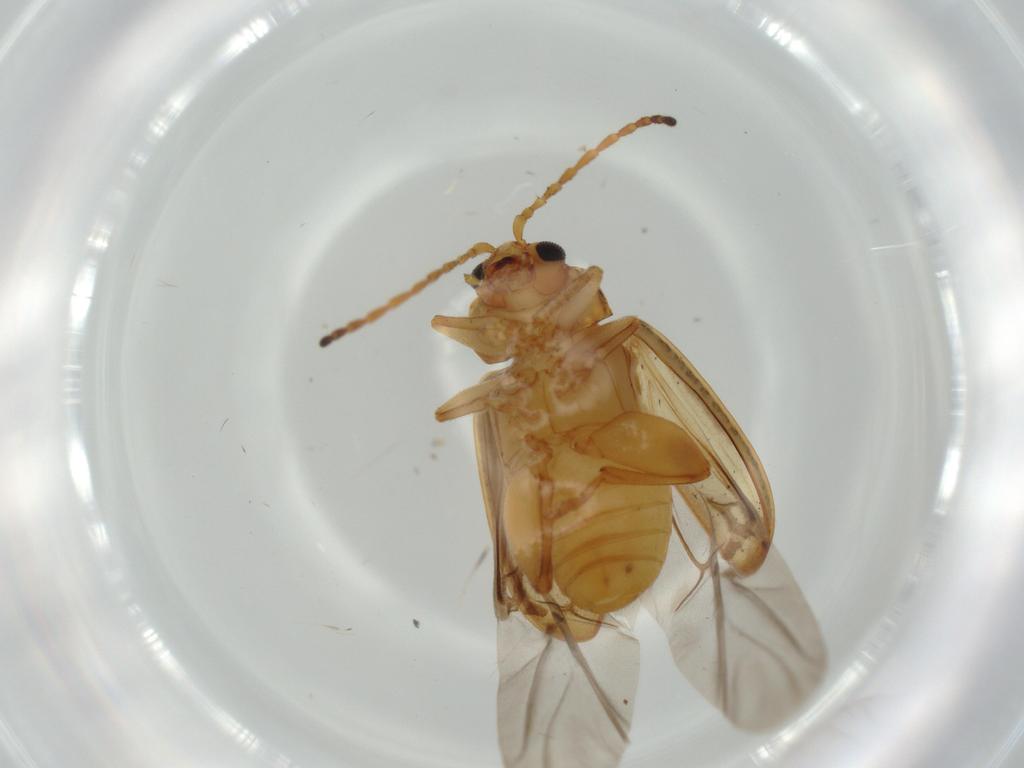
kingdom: Animalia
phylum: Arthropoda
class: Insecta
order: Coleoptera
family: Chrysomelidae
